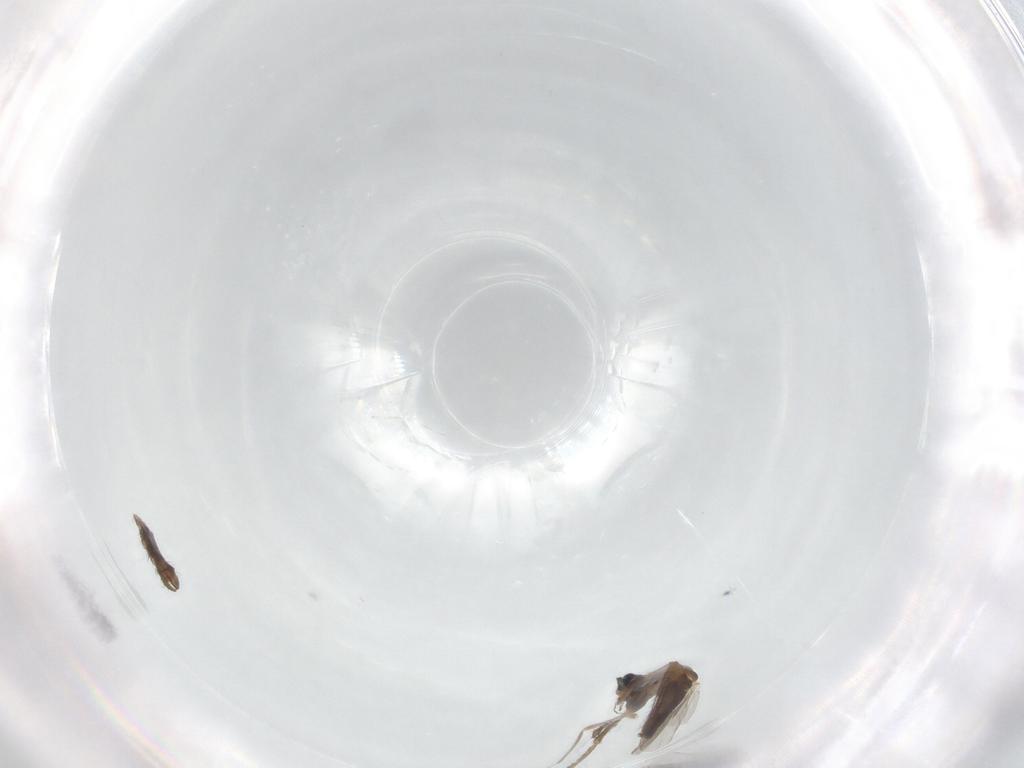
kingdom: Animalia
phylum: Arthropoda
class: Insecta
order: Diptera
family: Chironomidae
